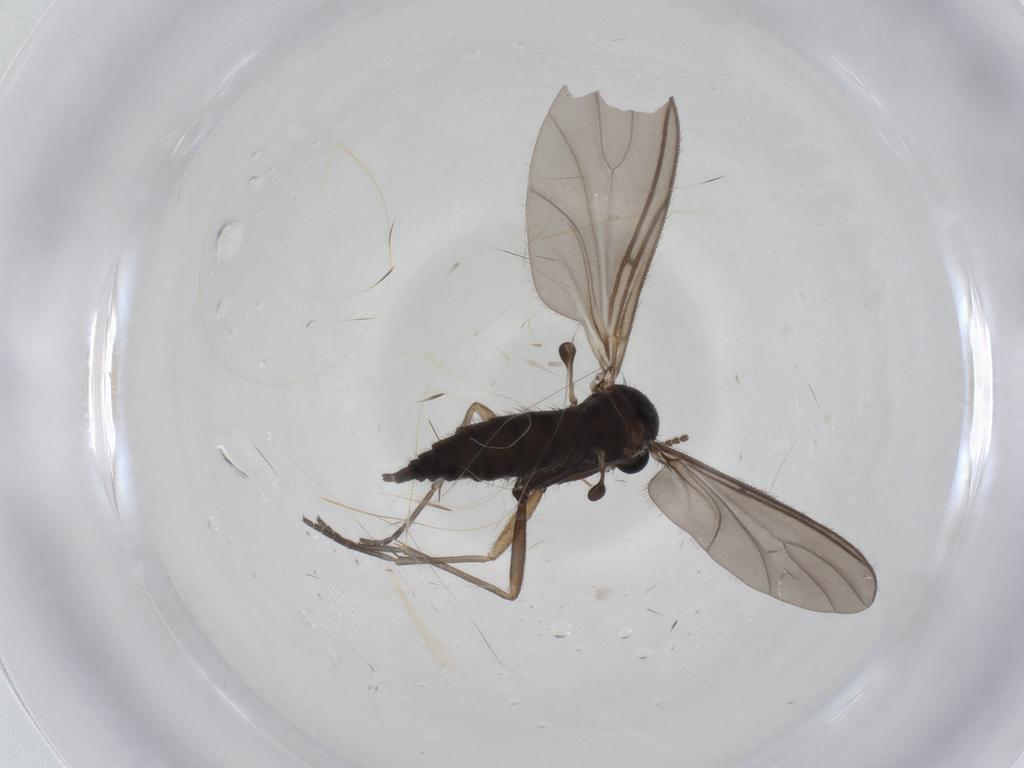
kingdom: Animalia
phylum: Arthropoda
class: Insecta
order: Diptera
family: Sciaridae
